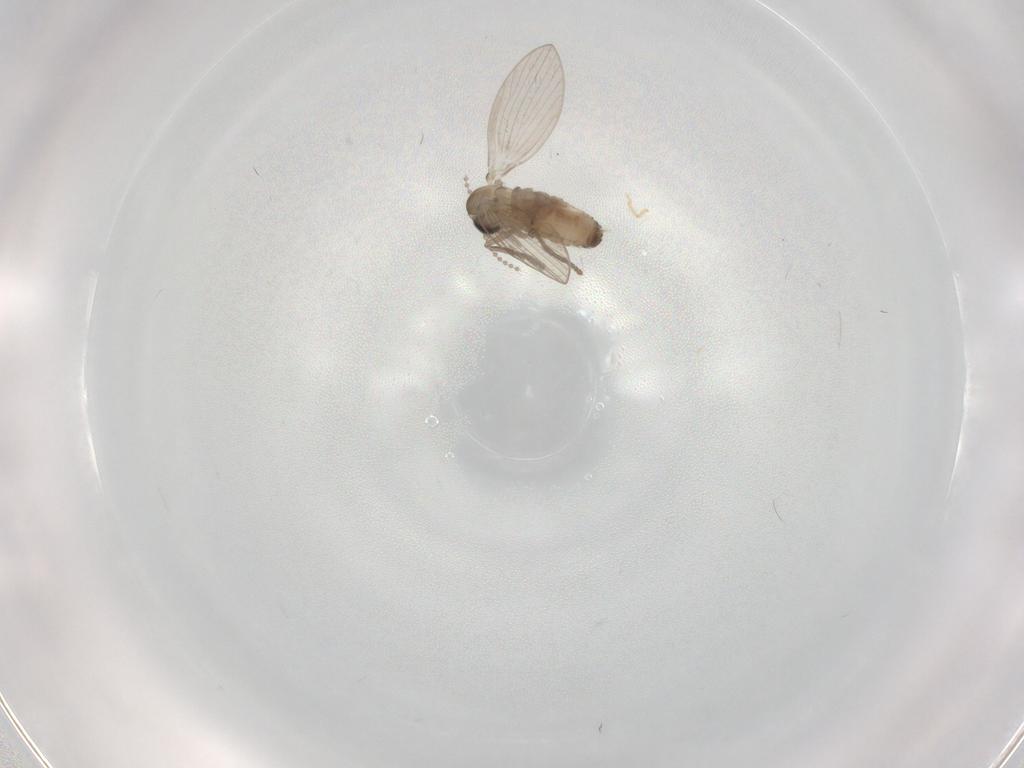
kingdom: Animalia
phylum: Arthropoda
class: Insecta
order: Diptera
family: Psychodidae
